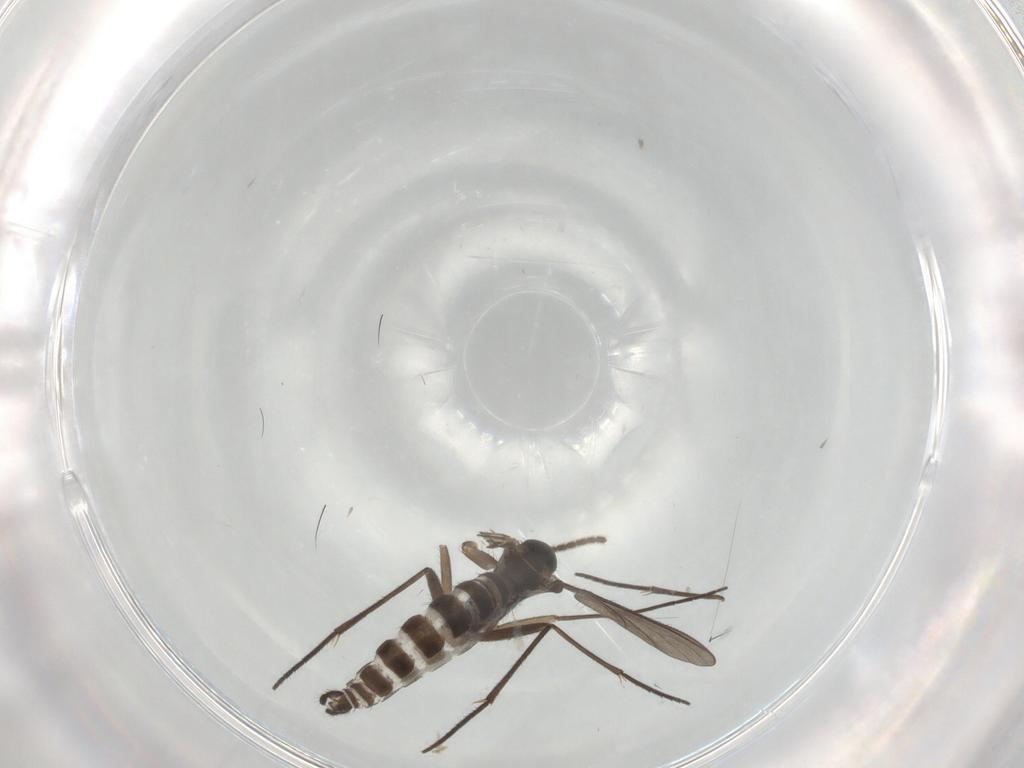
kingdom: Animalia
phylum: Arthropoda
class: Insecta
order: Diptera
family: Sciaridae
